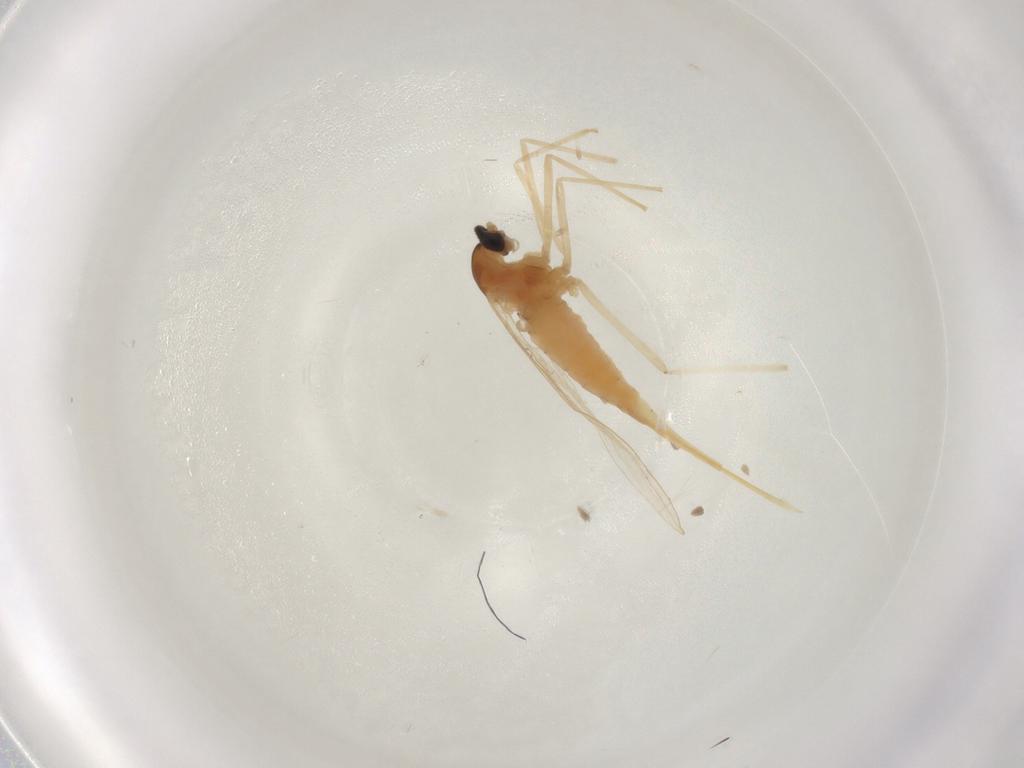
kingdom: Animalia
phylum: Arthropoda
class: Insecta
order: Diptera
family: Cecidomyiidae
